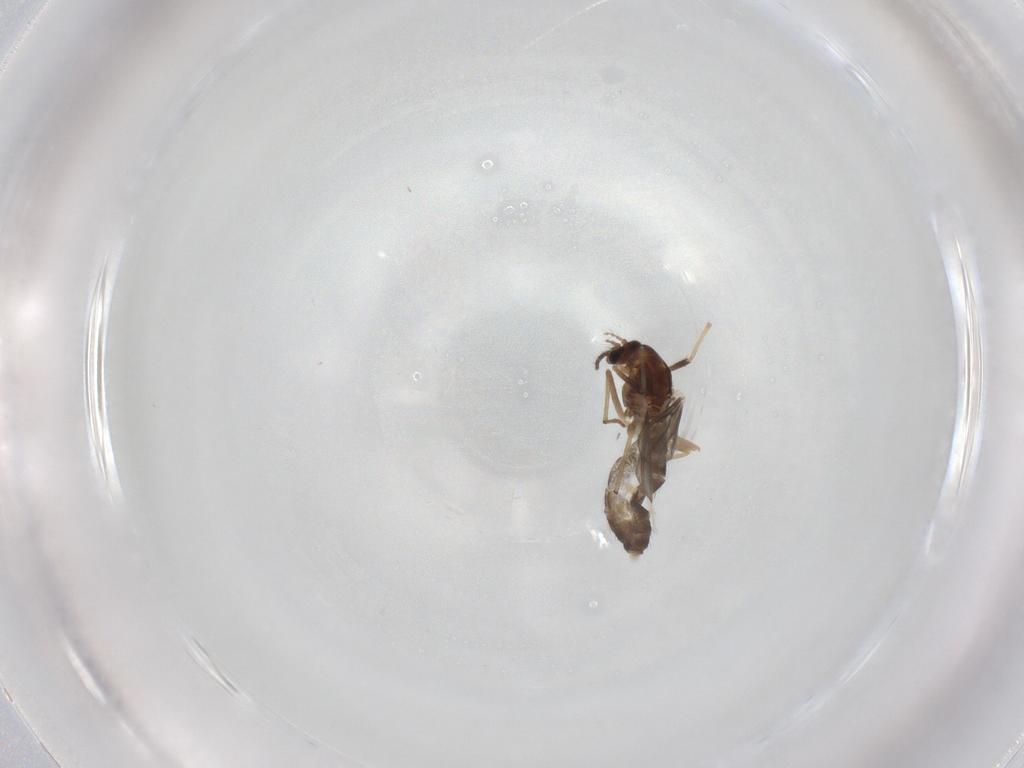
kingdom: Animalia
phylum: Arthropoda
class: Insecta
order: Diptera
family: Chironomidae
